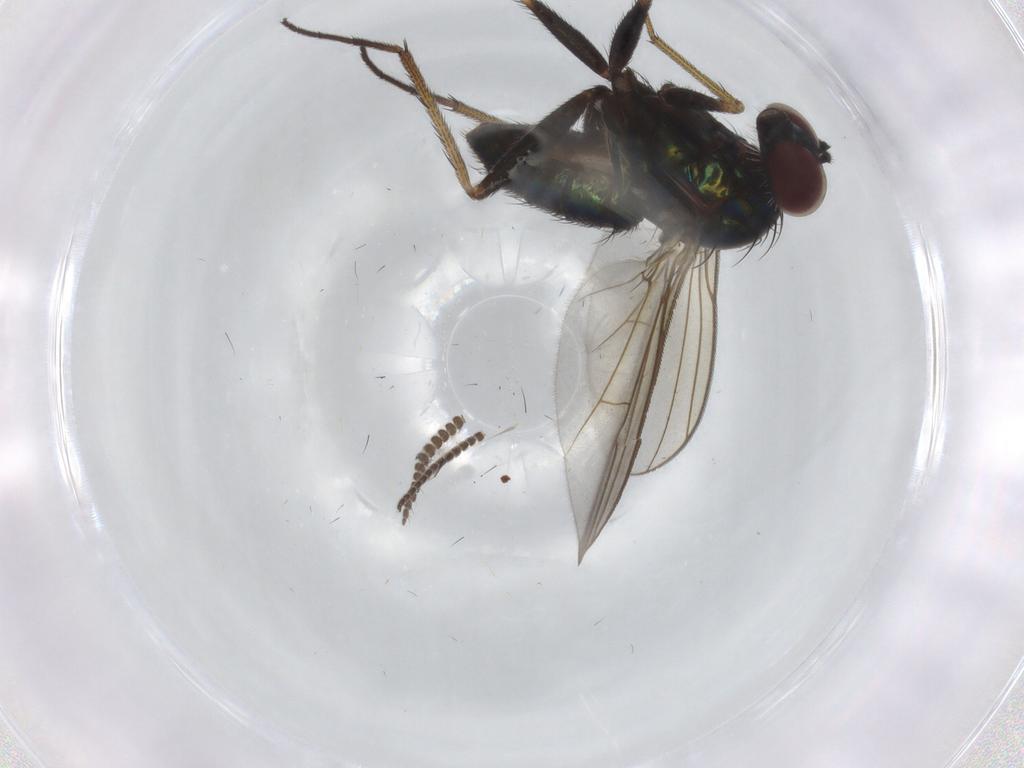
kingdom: Animalia
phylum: Arthropoda
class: Insecta
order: Diptera
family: Dolichopodidae
